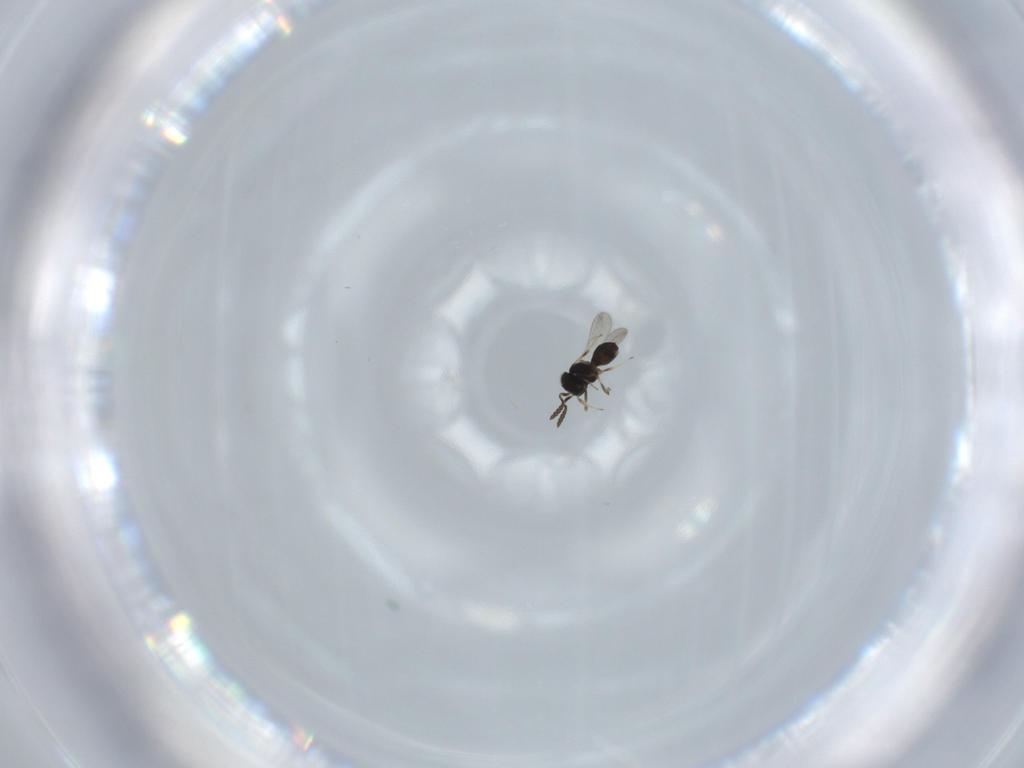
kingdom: Animalia
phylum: Arthropoda
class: Insecta
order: Hymenoptera
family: Scelionidae
